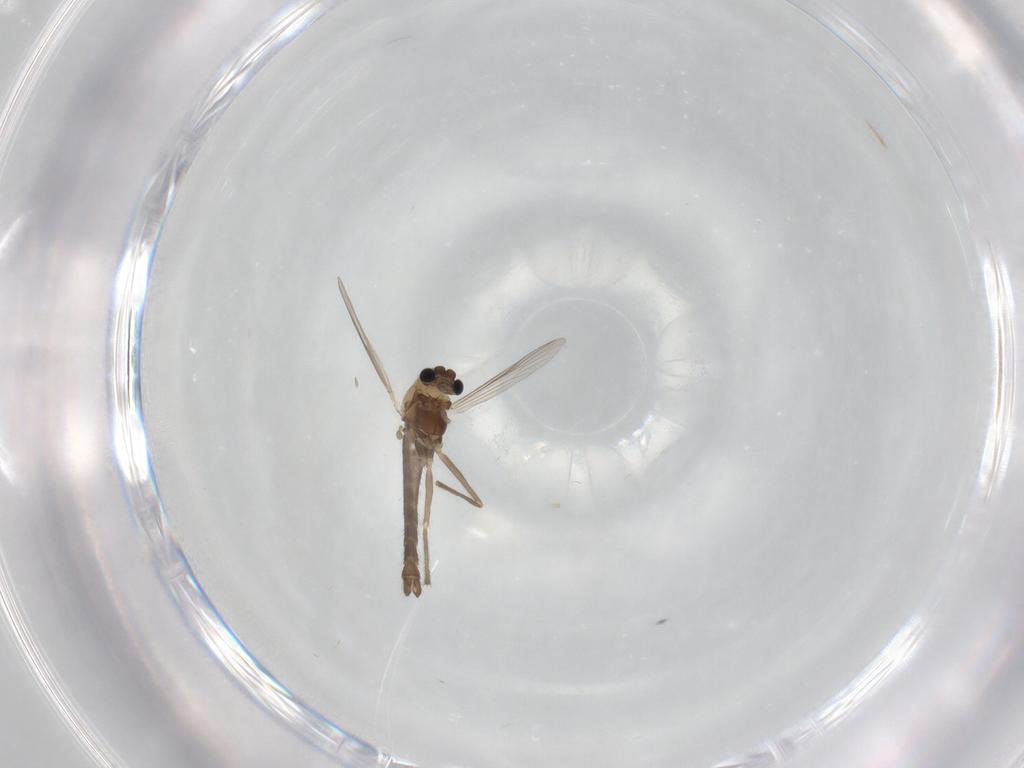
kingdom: Animalia
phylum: Arthropoda
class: Insecta
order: Diptera
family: Chironomidae
